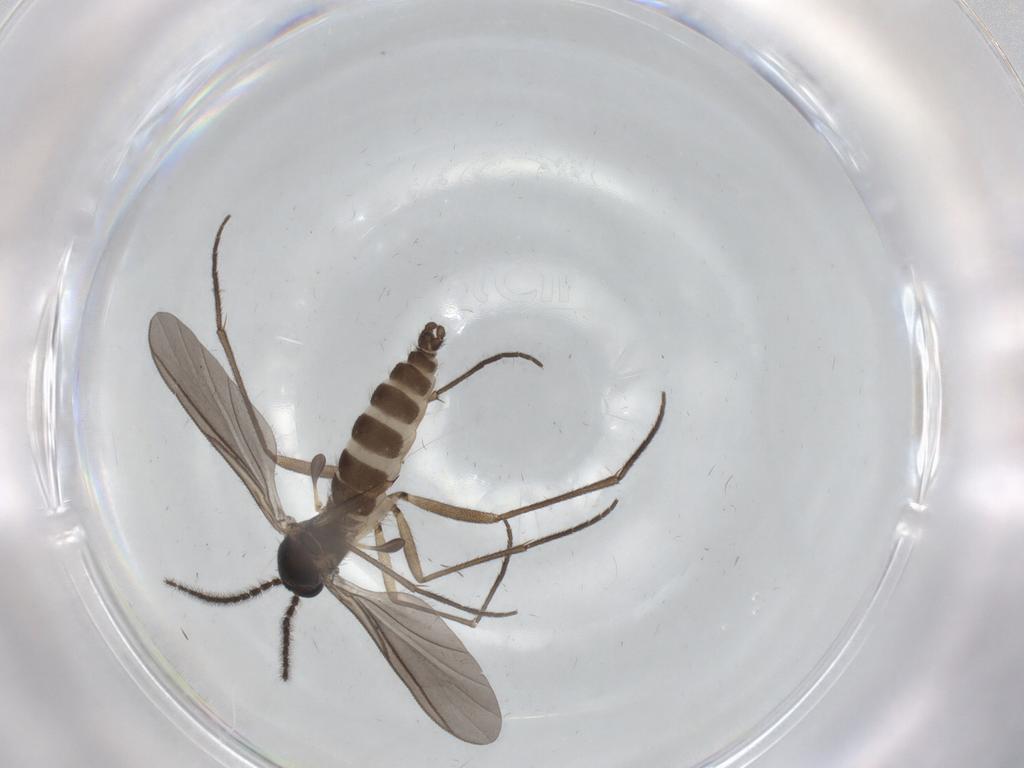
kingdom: Animalia
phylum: Arthropoda
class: Insecta
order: Diptera
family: Sciaridae
